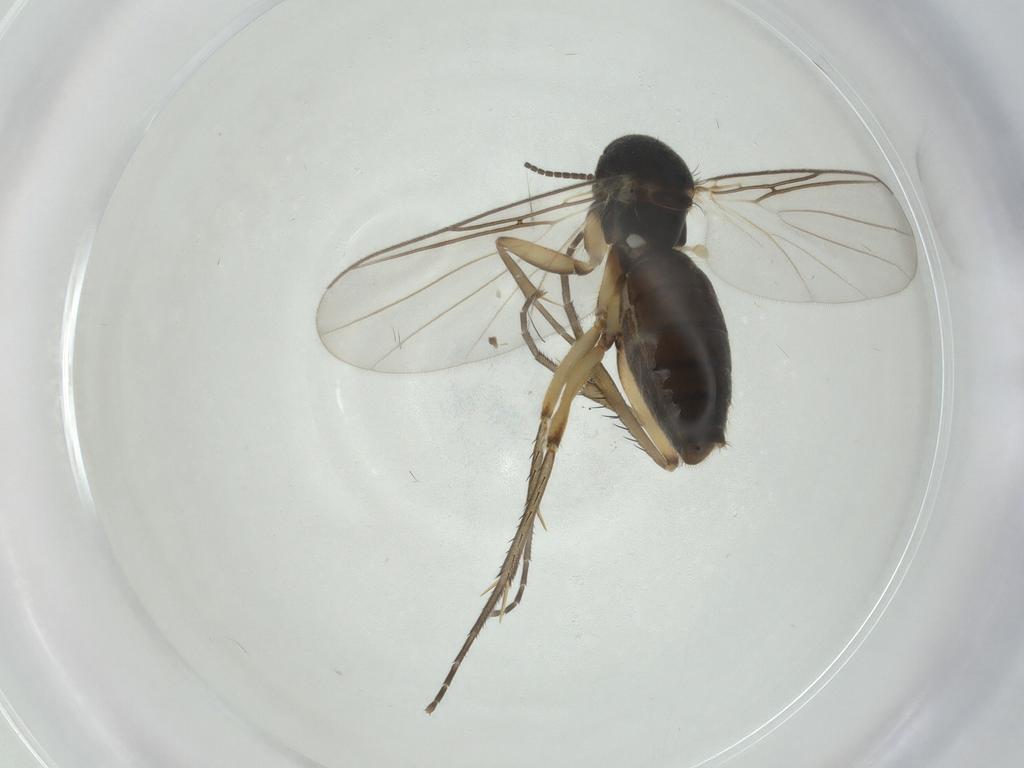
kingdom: Animalia
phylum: Arthropoda
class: Insecta
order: Diptera
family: Mycetophilidae
